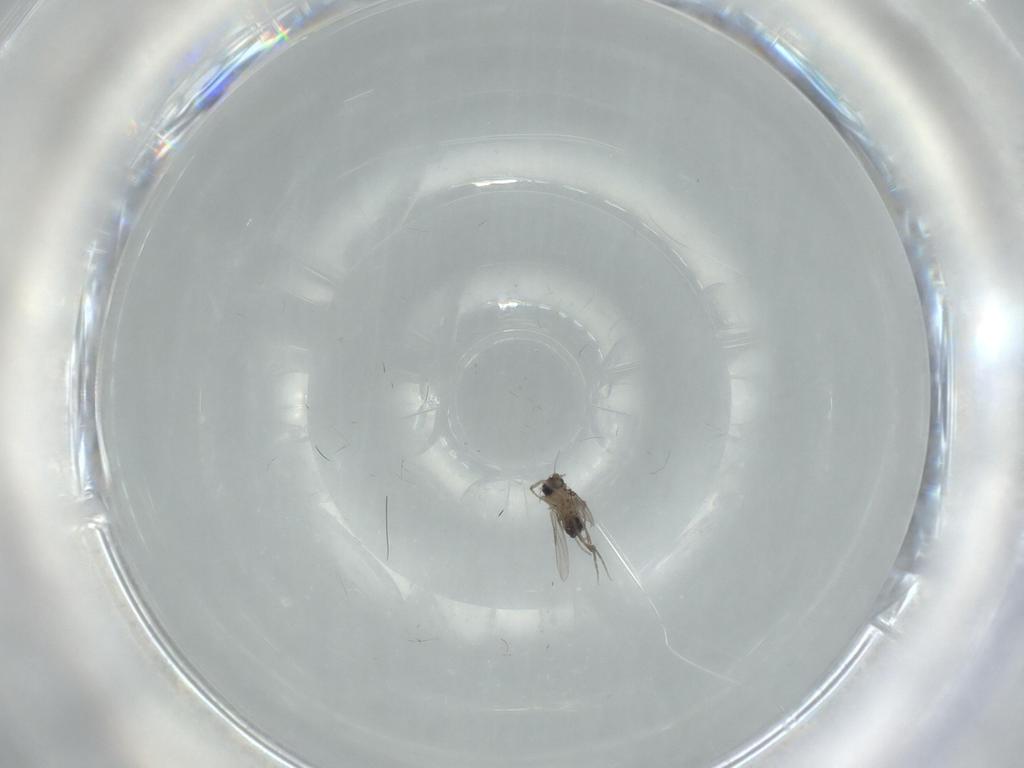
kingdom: Animalia
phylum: Arthropoda
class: Insecta
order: Diptera
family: Phoridae
